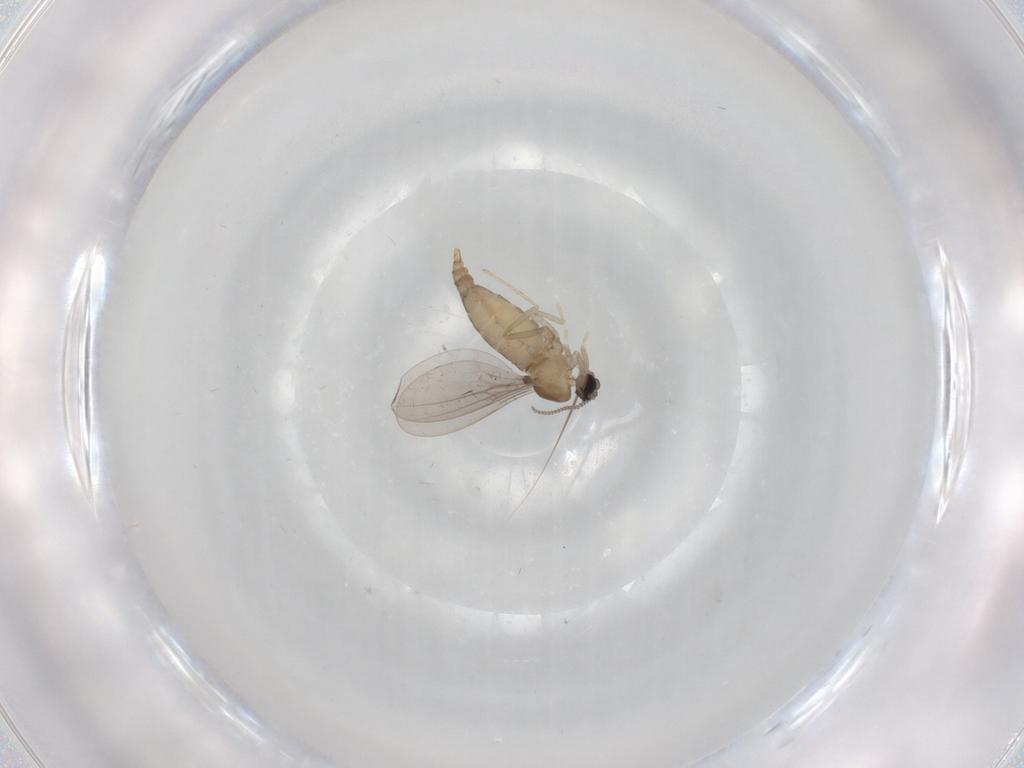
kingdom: Animalia
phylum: Arthropoda
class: Insecta
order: Diptera
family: Cecidomyiidae
